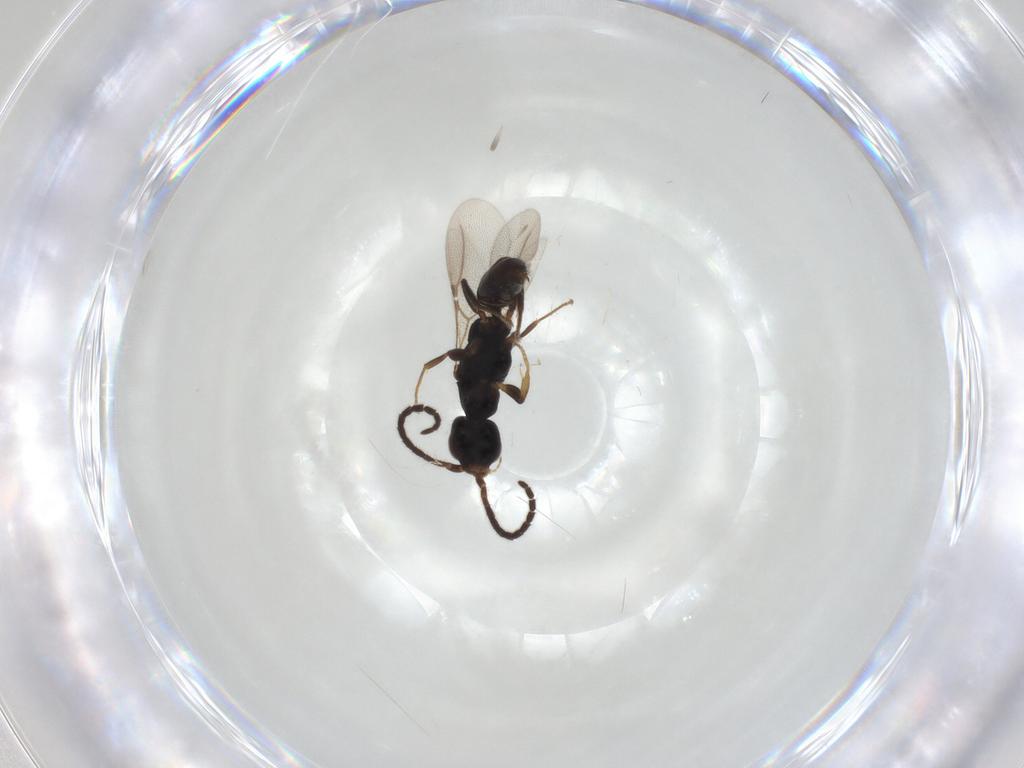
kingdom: Animalia
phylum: Arthropoda
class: Insecta
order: Hymenoptera
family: Bethylidae
